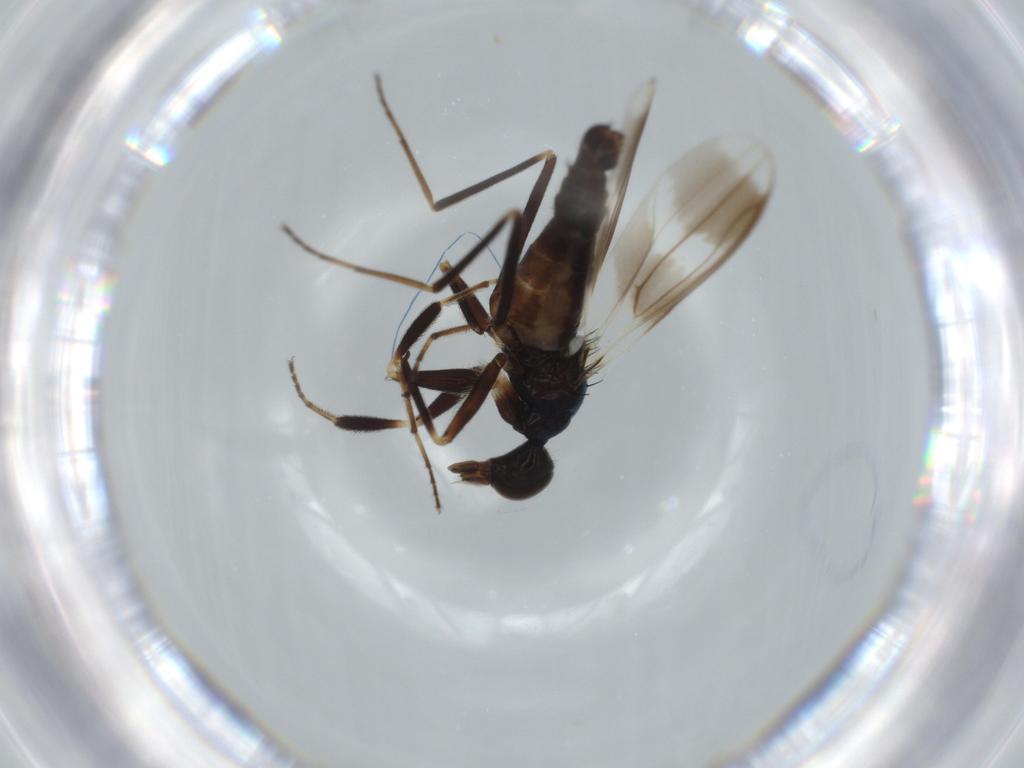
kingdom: Animalia
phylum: Arthropoda
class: Insecta
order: Diptera
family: Hybotidae
